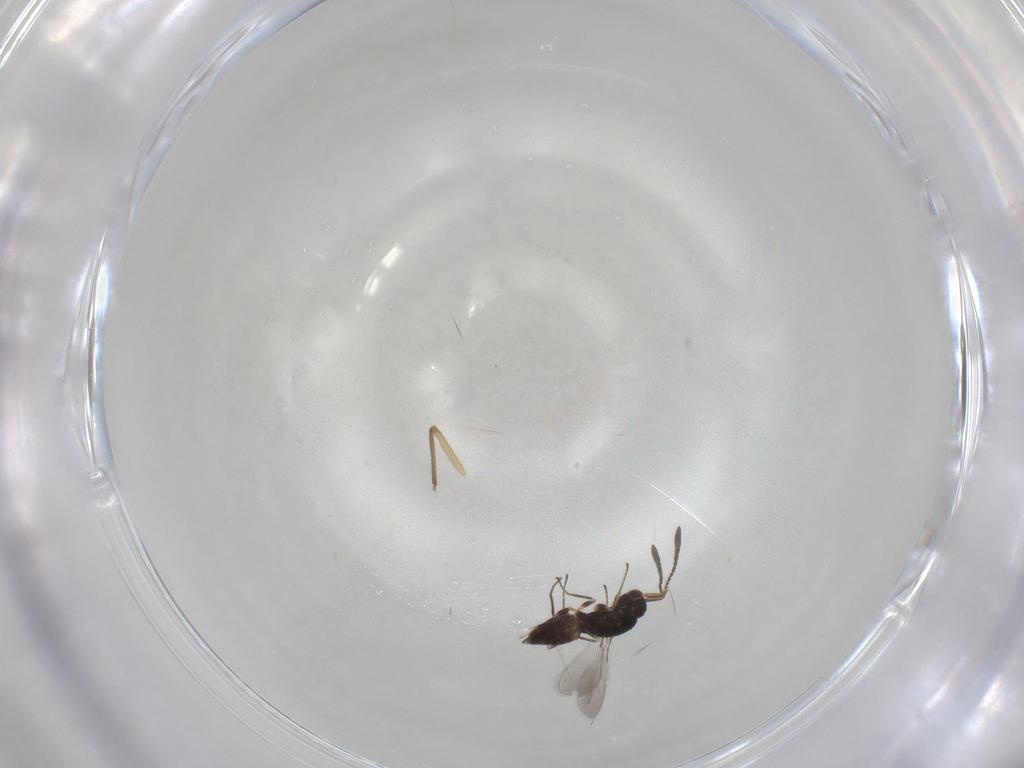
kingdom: Animalia
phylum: Arthropoda
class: Insecta
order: Hymenoptera
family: Mymaridae
